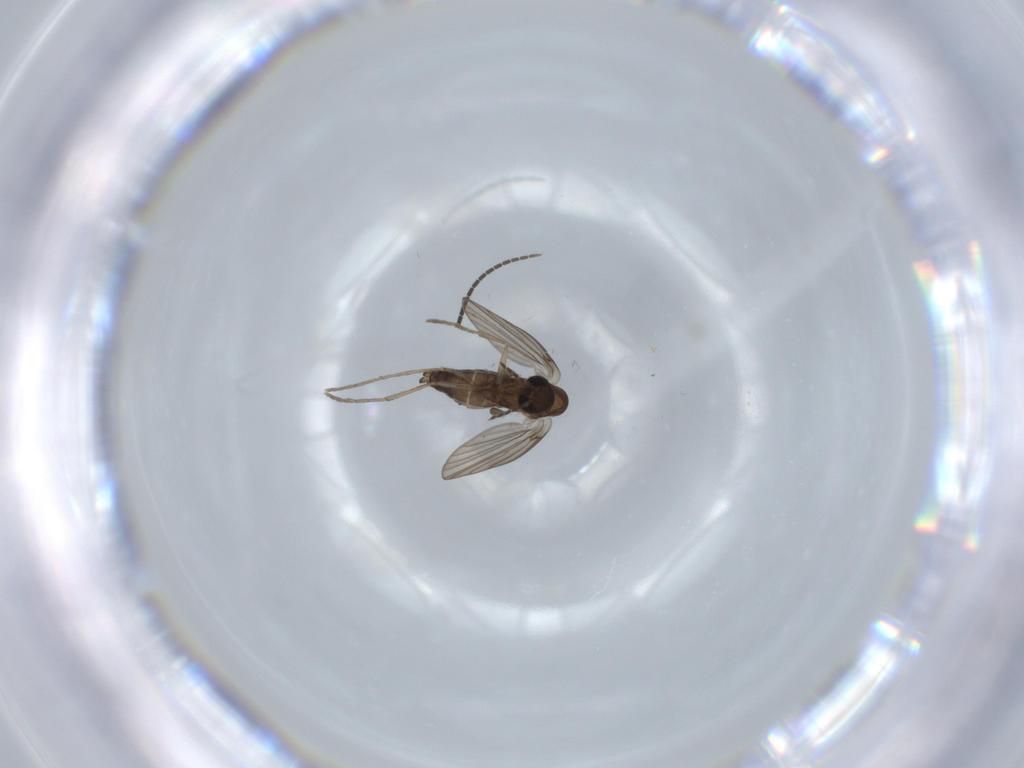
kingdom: Animalia
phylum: Arthropoda
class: Insecta
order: Diptera
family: Sciaridae
